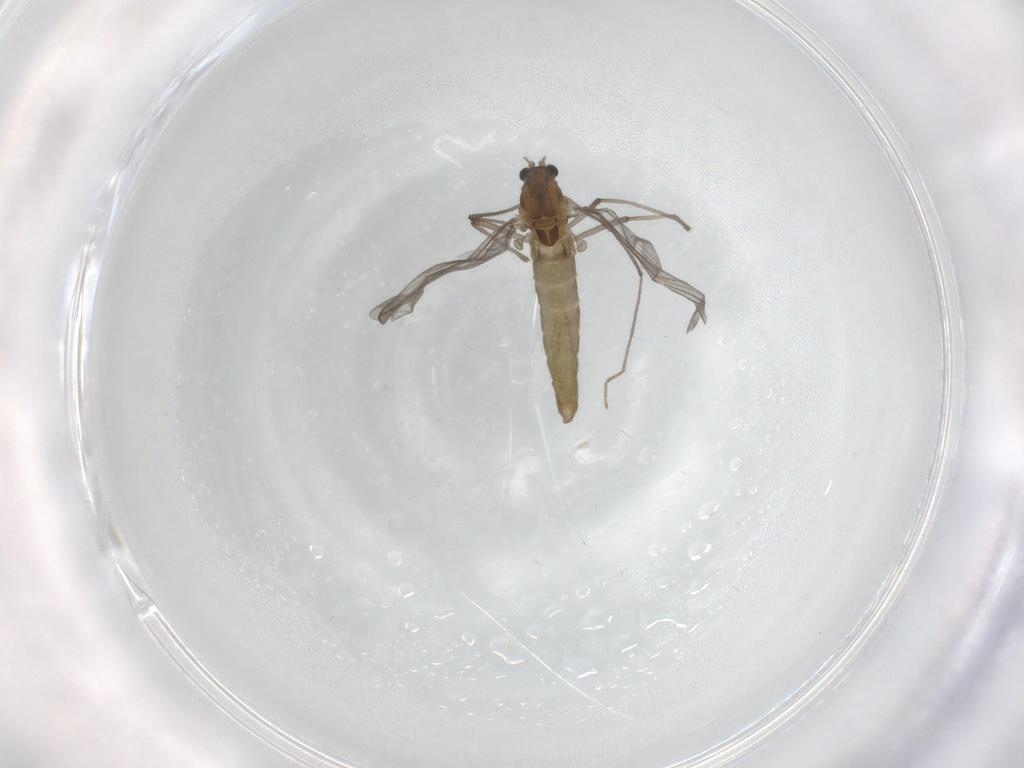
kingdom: Animalia
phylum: Arthropoda
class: Insecta
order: Diptera
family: Chironomidae
